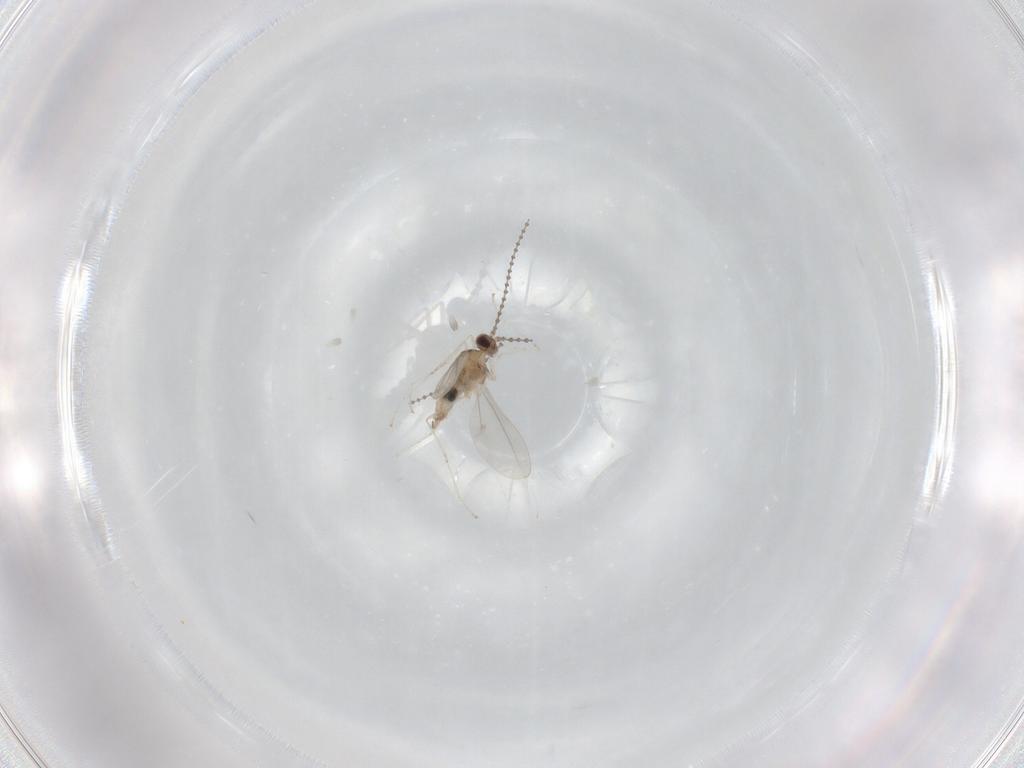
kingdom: Animalia
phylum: Arthropoda
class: Insecta
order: Diptera
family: Cecidomyiidae
